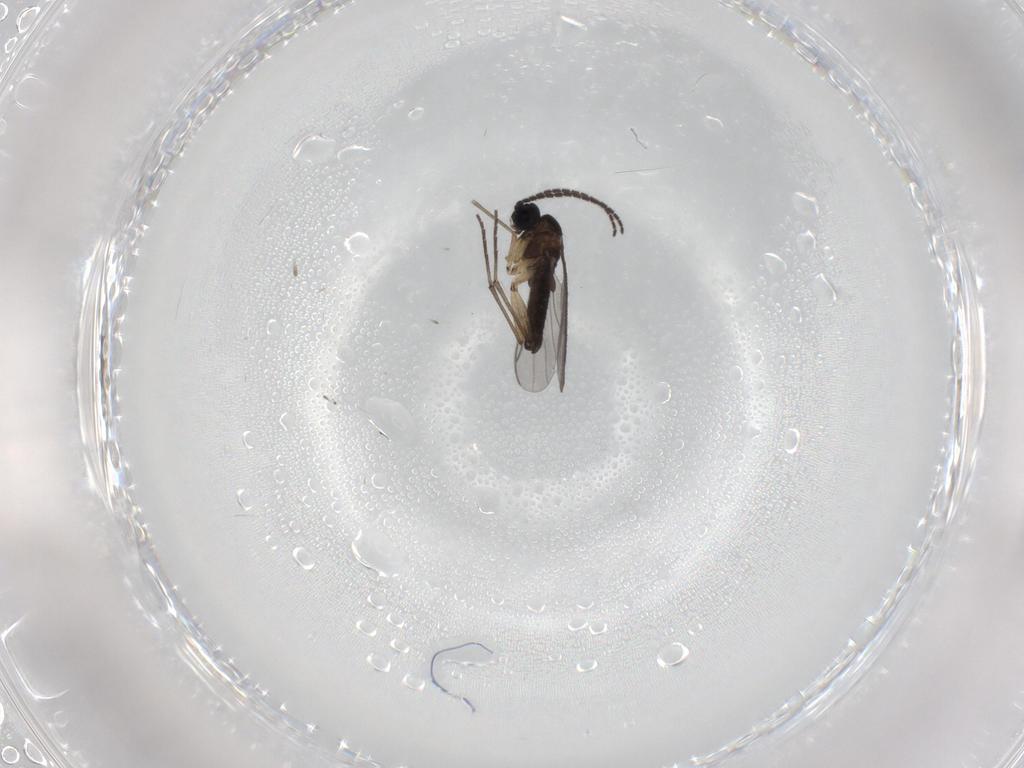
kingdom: Animalia
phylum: Arthropoda
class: Insecta
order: Diptera
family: Sciaridae
